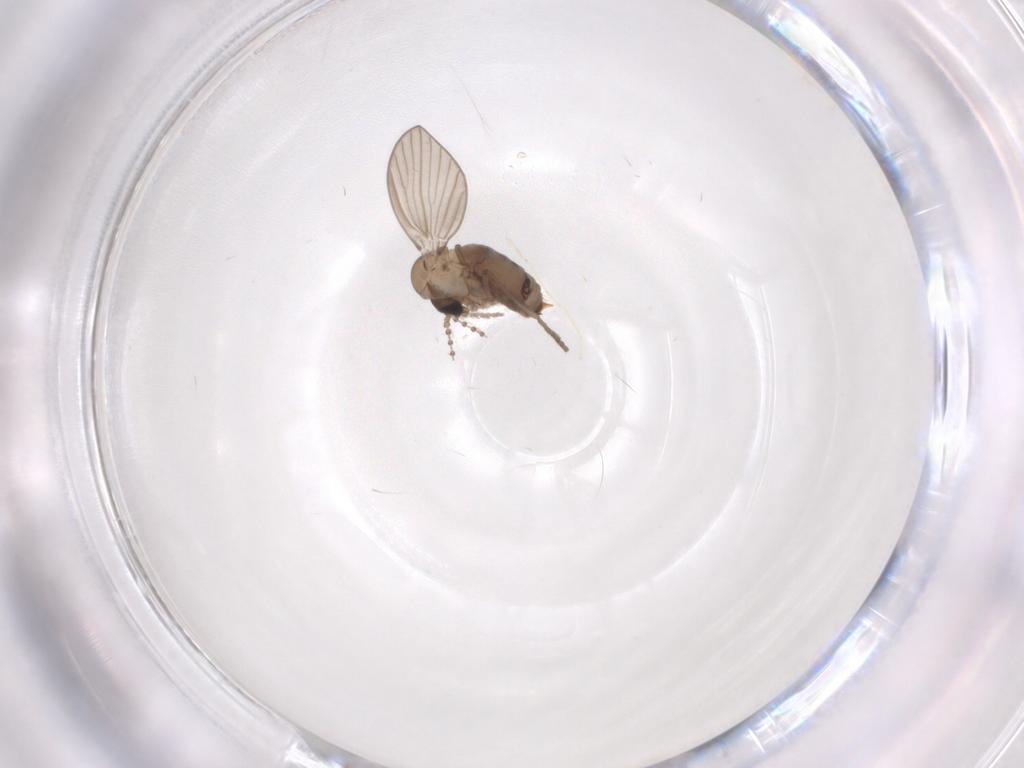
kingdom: Animalia
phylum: Arthropoda
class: Insecta
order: Diptera
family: Psychodidae
